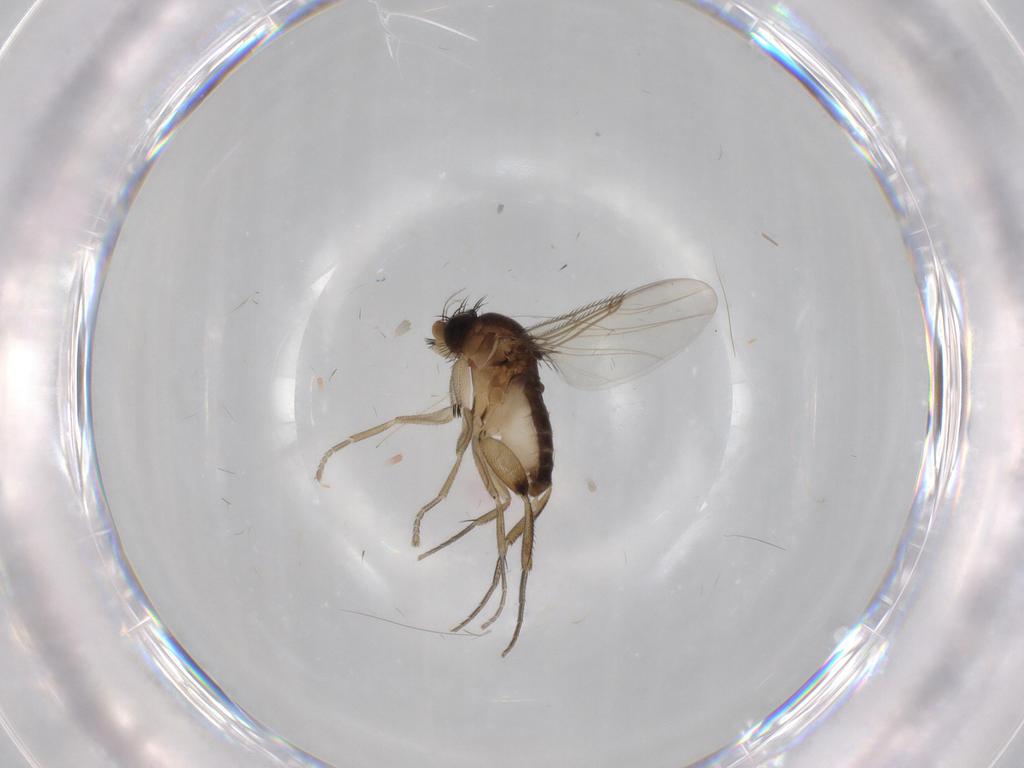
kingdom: Animalia
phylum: Arthropoda
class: Insecta
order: Diptera
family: Phoridae
